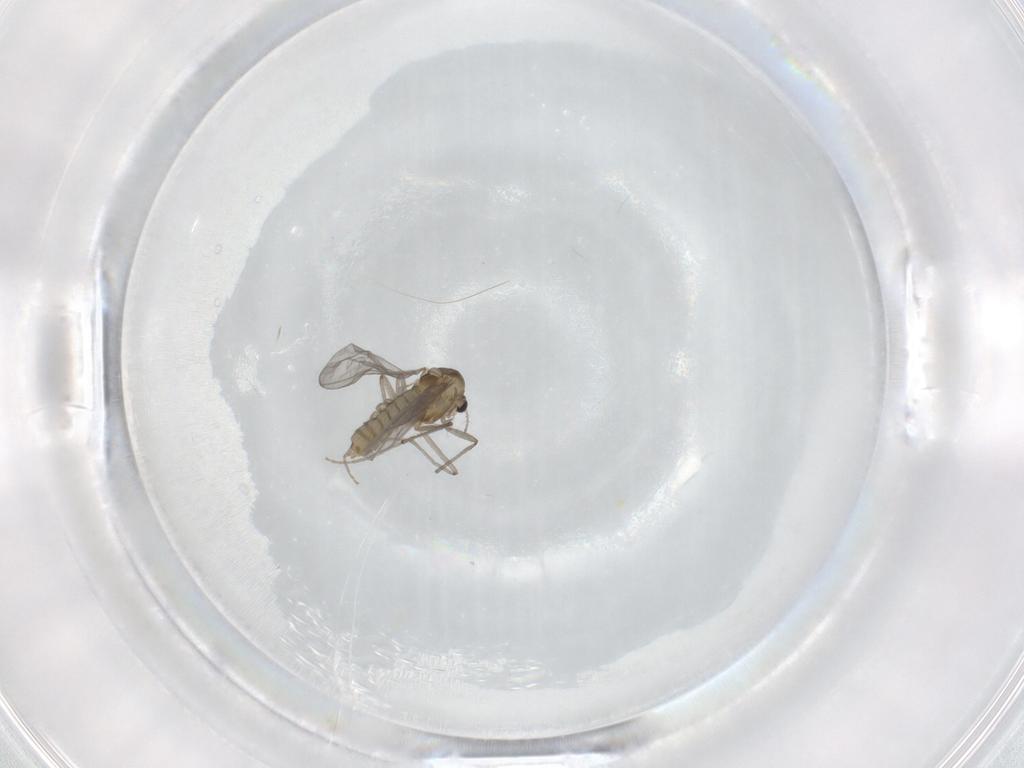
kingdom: Animalia
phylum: Arthropoda
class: Insecta
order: Diptera
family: Chironomidae
